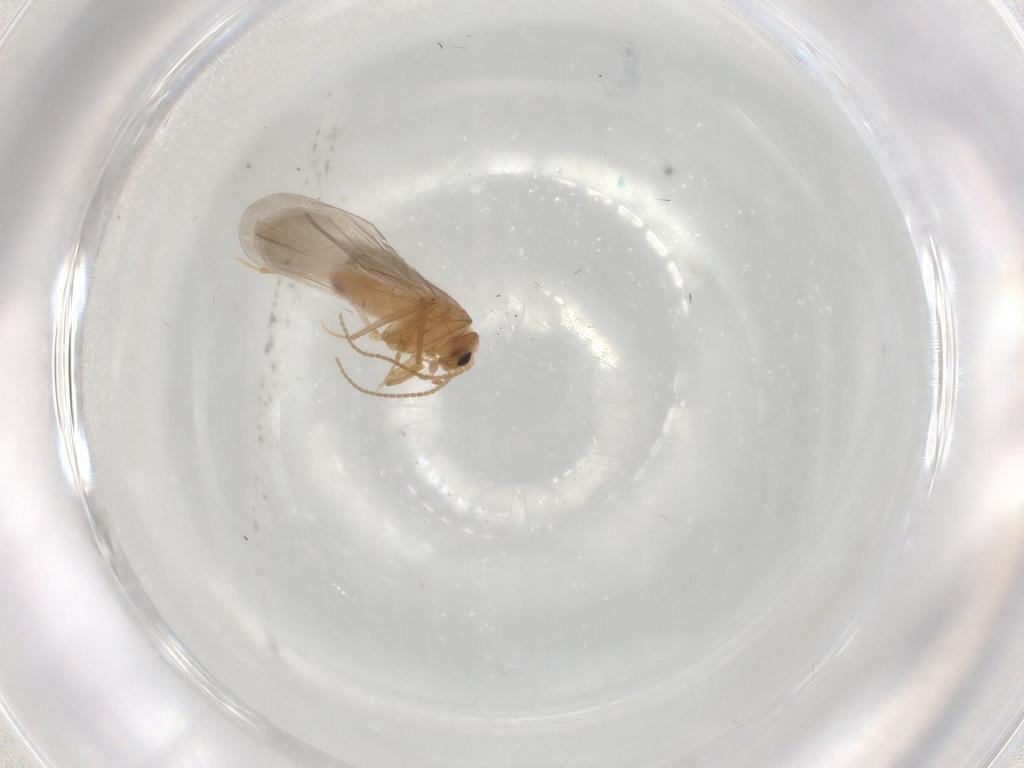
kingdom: Animalia
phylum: Arthropoda
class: Insecta
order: Neuroptera
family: Coniopterygidae
